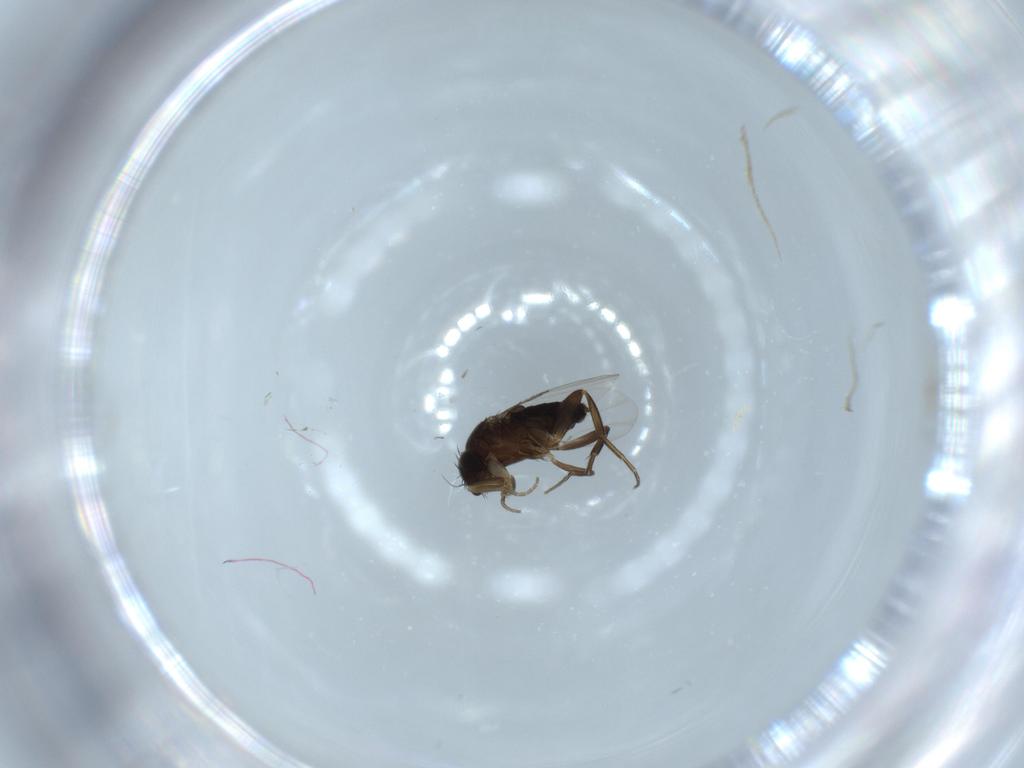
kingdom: Animalia
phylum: Arthropoda
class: Insecta
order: Diptera
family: Phoridae
